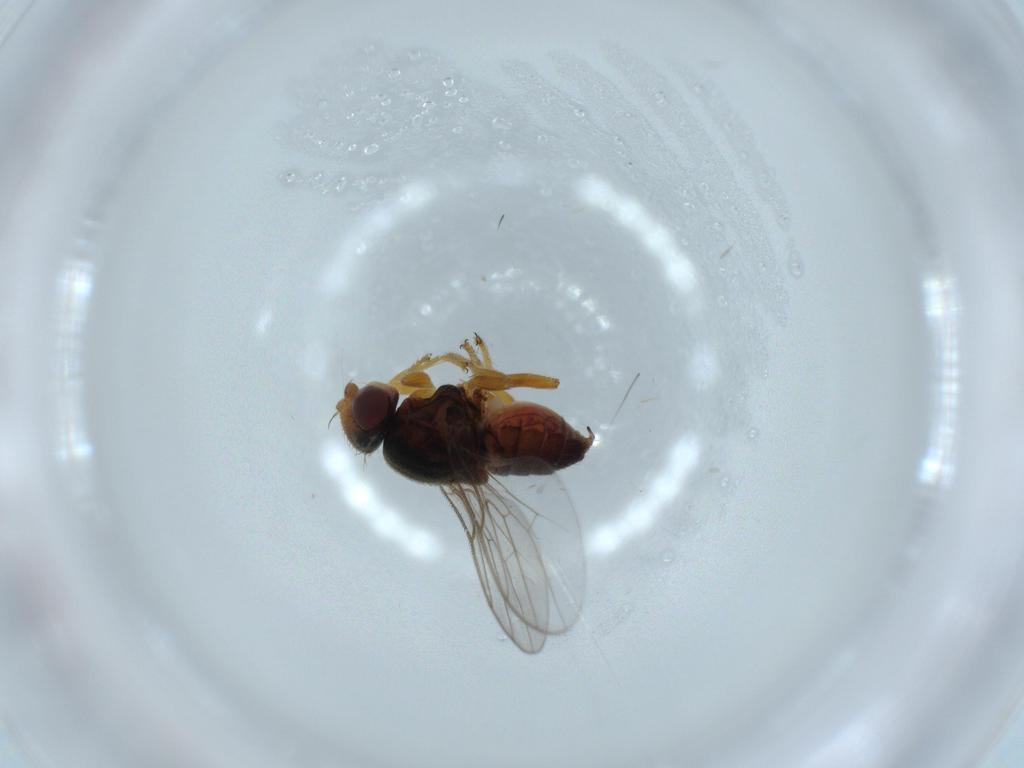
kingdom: Animalia
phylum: Arthropoda
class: Insecta
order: Diptera
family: Chloropidae
